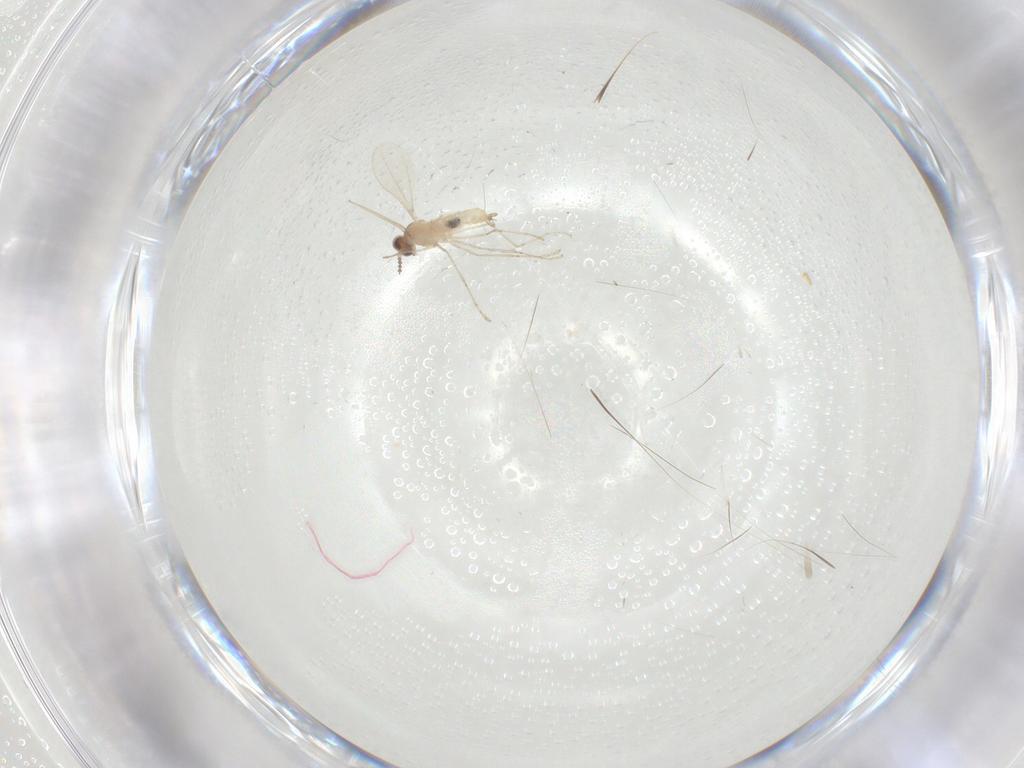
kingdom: Animalia
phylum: Arthropoda
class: Insecta
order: Diptera
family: Cecidomyiidae
